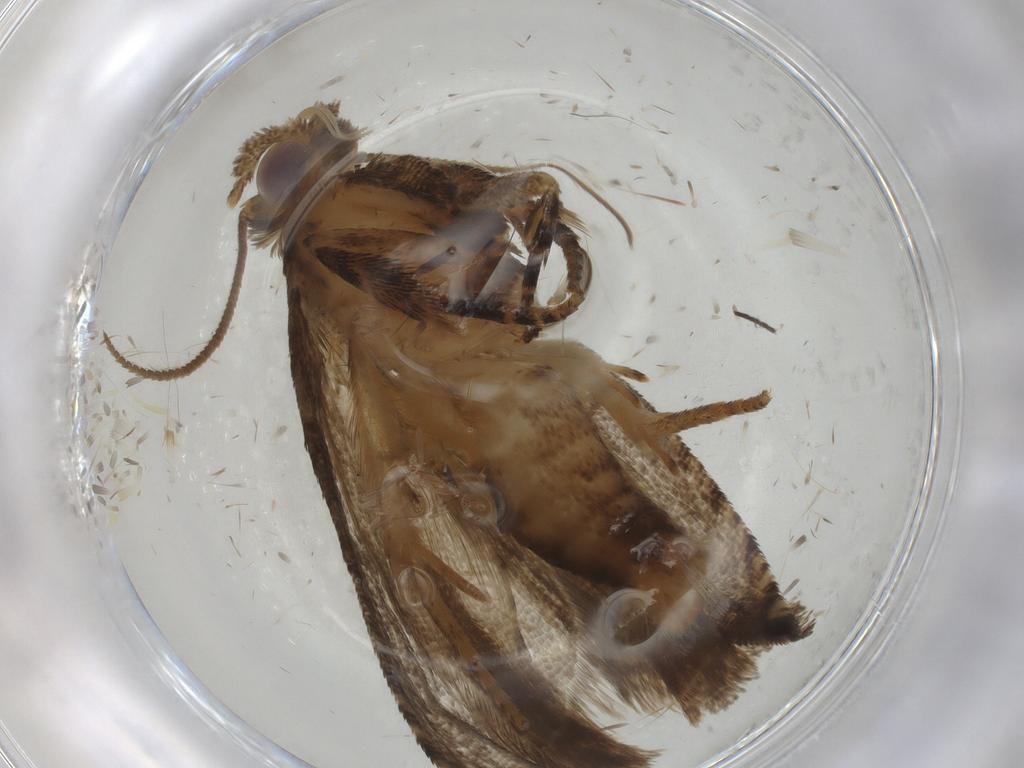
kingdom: Animalia
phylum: Arthropoda
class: Insecta
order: Lepidoptera
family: Tortricidae
